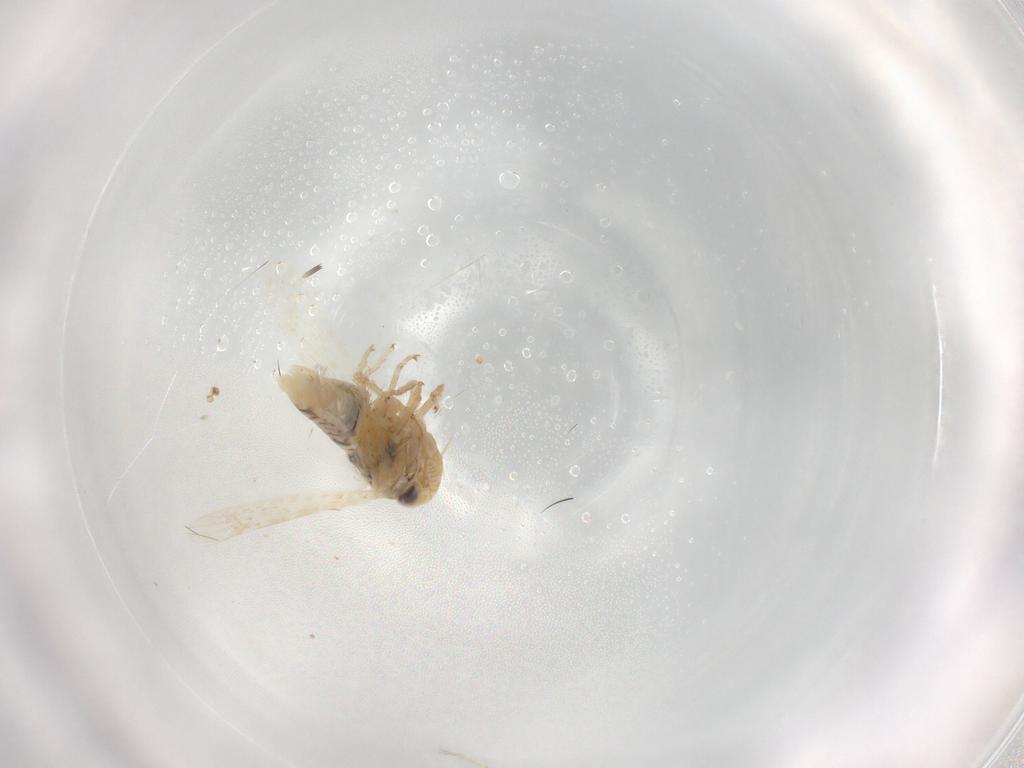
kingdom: Animalia
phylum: Arthropoda
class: Insecta
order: Hemiptera
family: Cicadellidae
